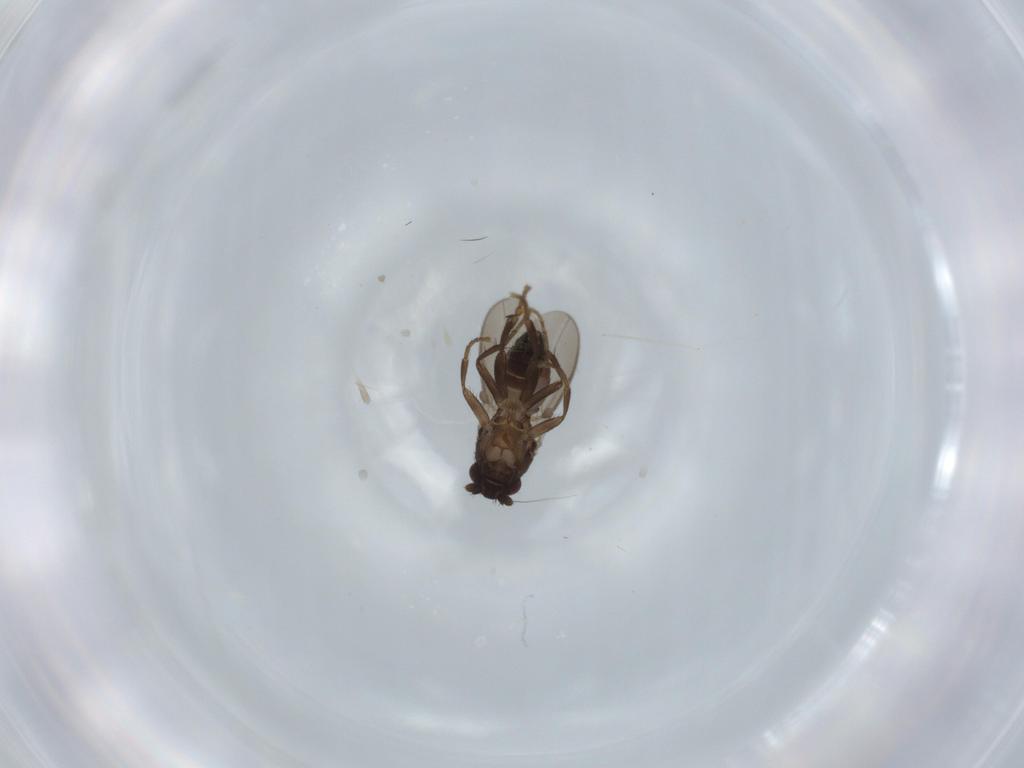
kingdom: Animalia
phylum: Arthropoda
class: Insecta
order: Diptera
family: Sphaeroceridae
